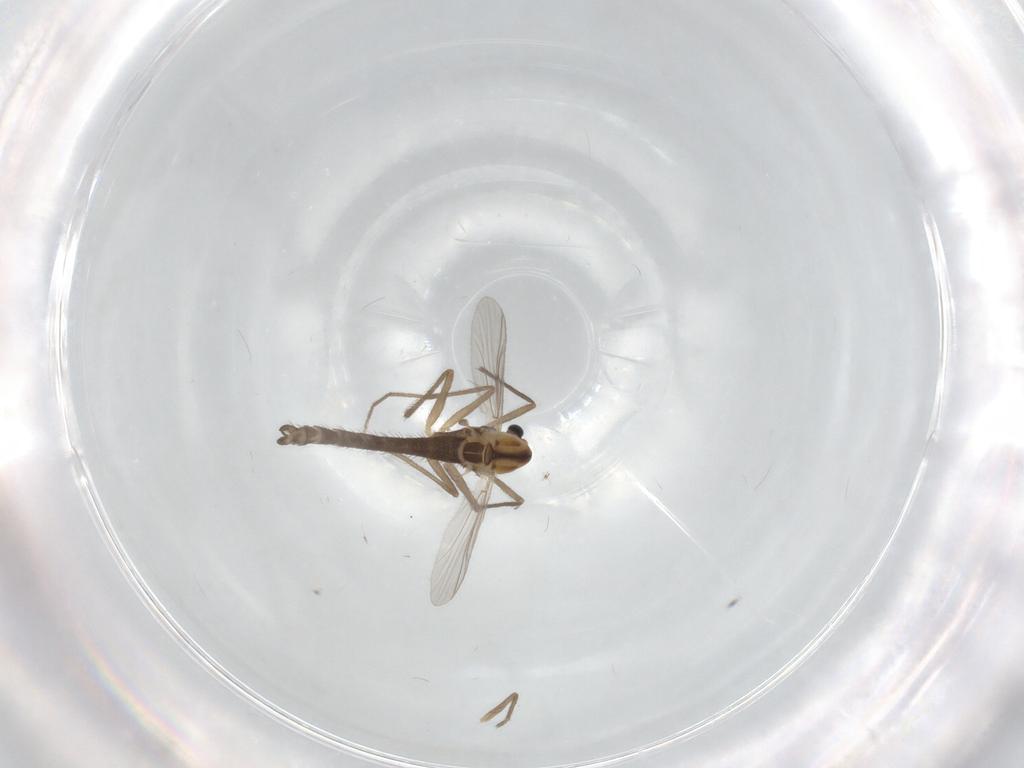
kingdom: Animalia
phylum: Arthropoda
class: Insecta
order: Diptera
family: Chironomidae
